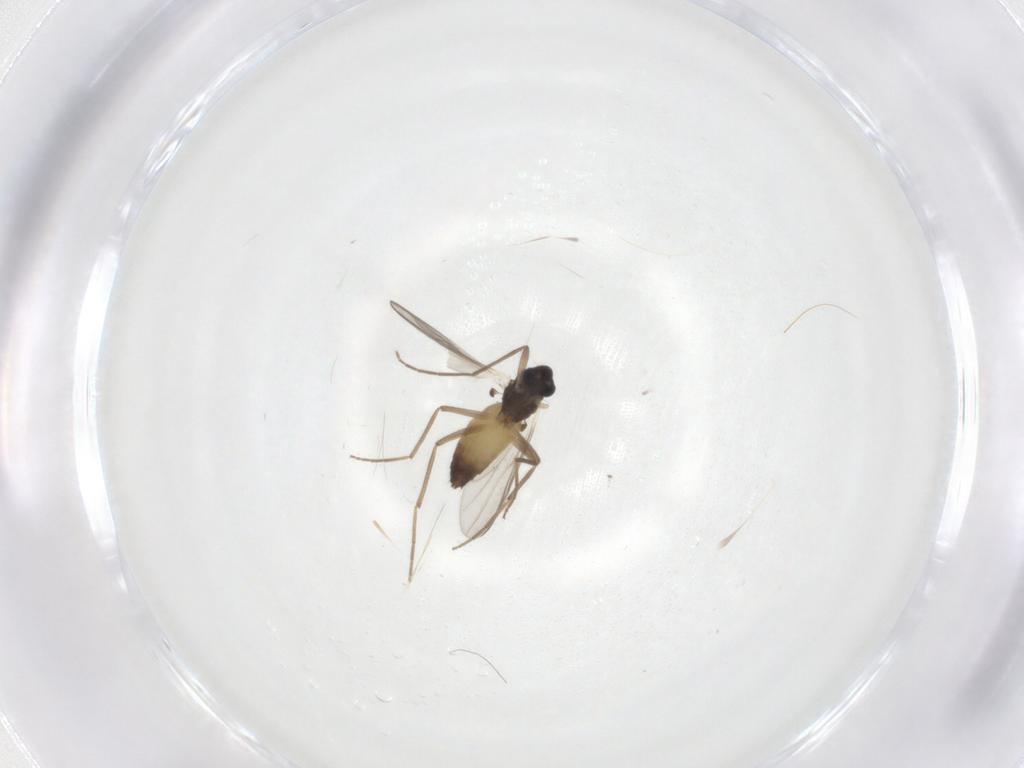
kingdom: Animalia
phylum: Arthropoda
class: Insecta
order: Diptera
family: Chironomidae
